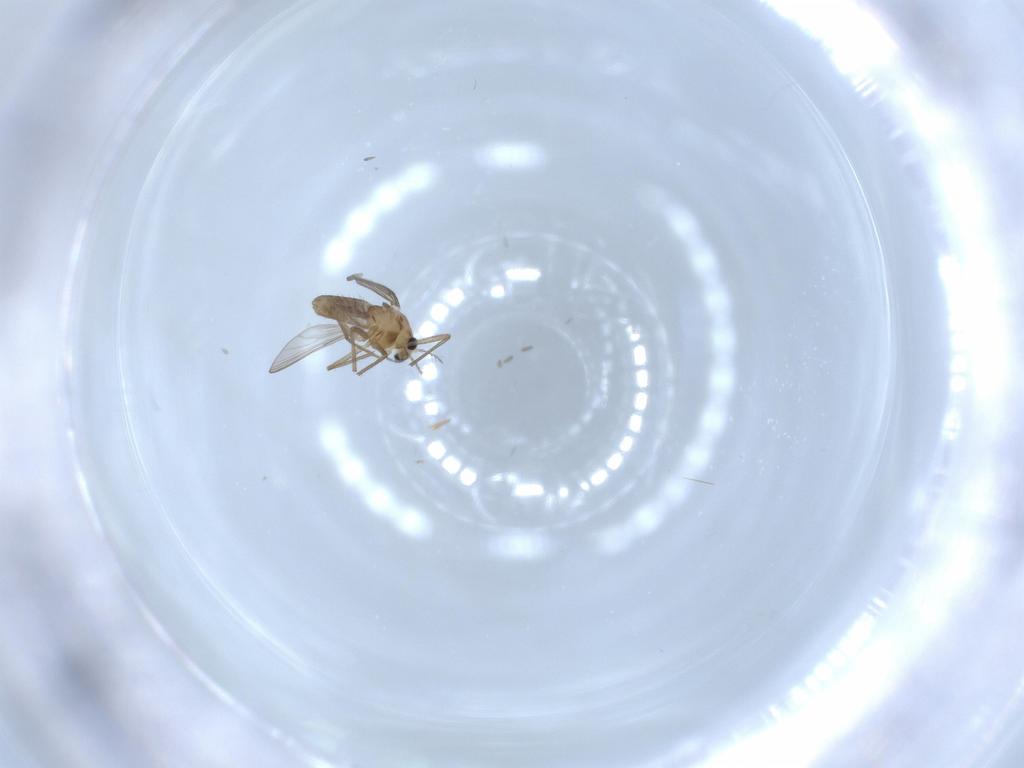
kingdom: Animalia
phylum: Arthropoda
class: Insecta
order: Diptera
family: Chironomidae
